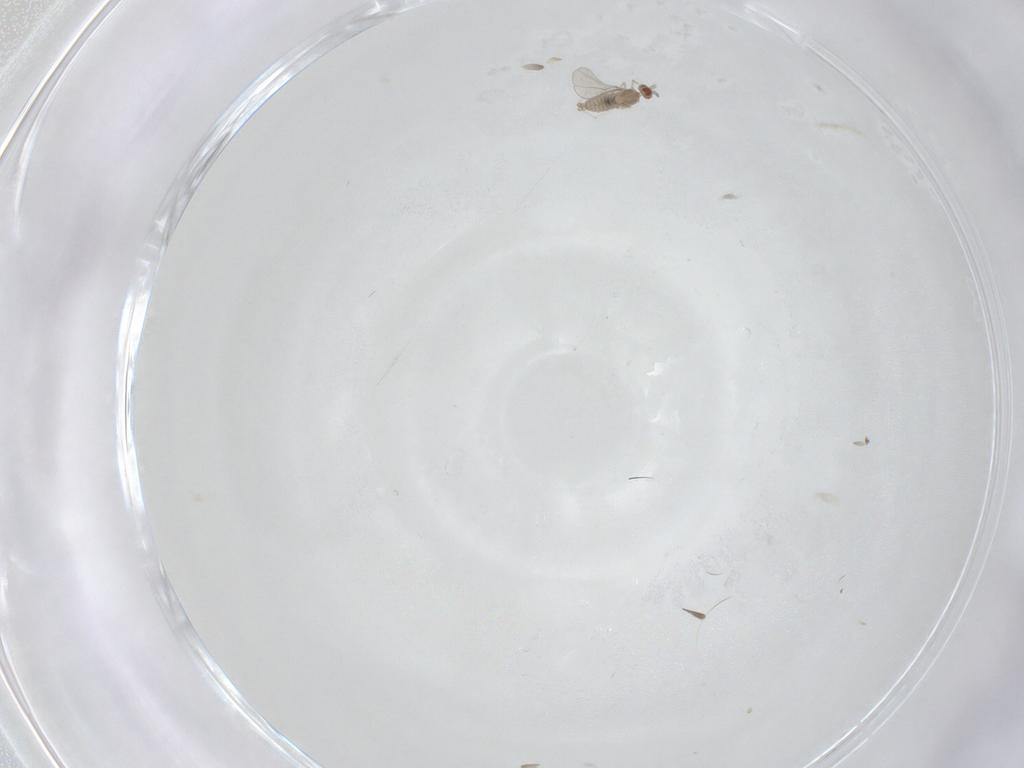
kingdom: Animalia
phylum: Arthropoda
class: Insecta
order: Diptera
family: Cecidomyiidae
